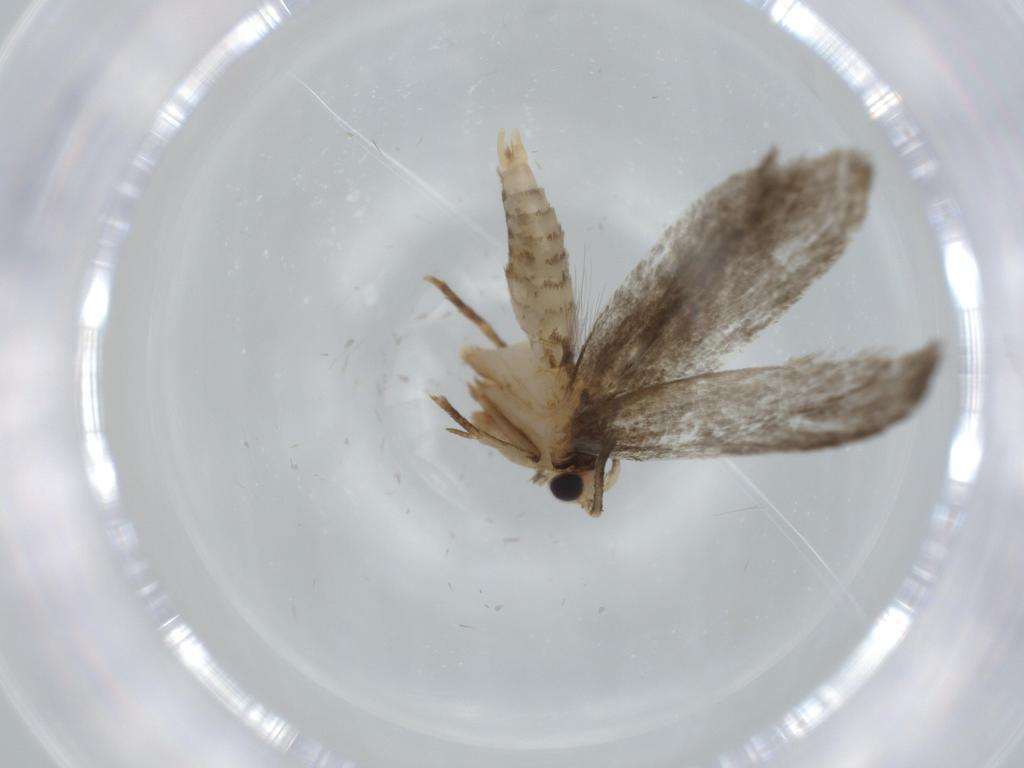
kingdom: Animalia
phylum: Arthropoda
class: Insecta
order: Lepidoptera
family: Tineidae
